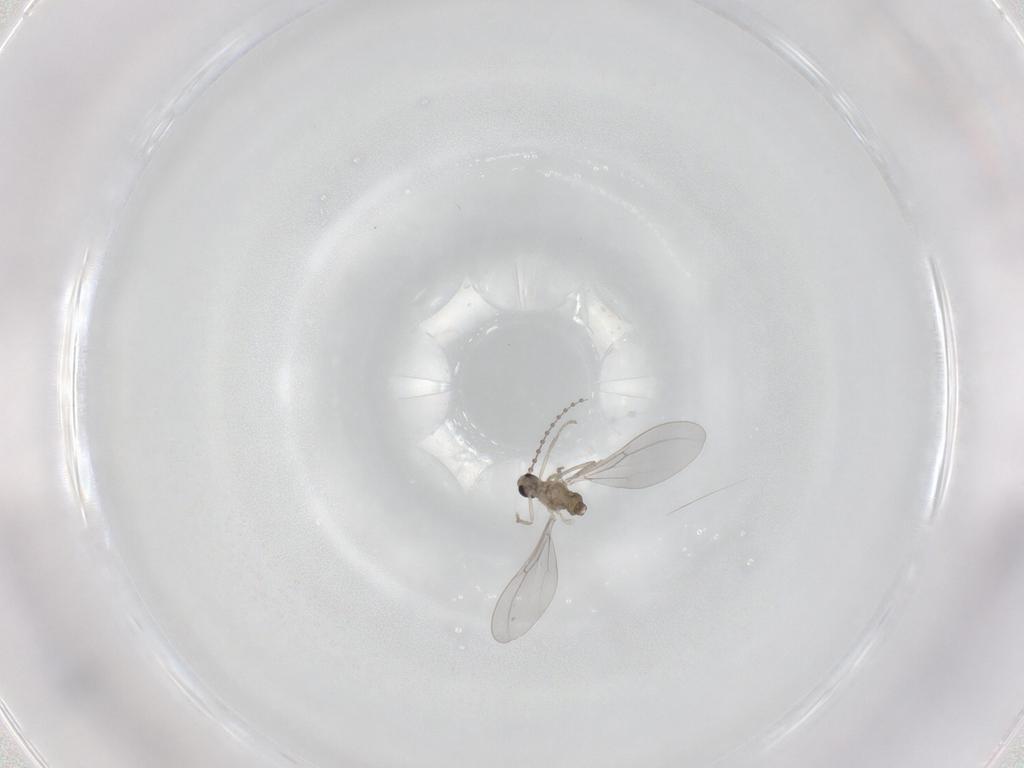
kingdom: Animalia
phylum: Arthropoda
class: Insecta
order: Diptera
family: Cecidomyiidae
